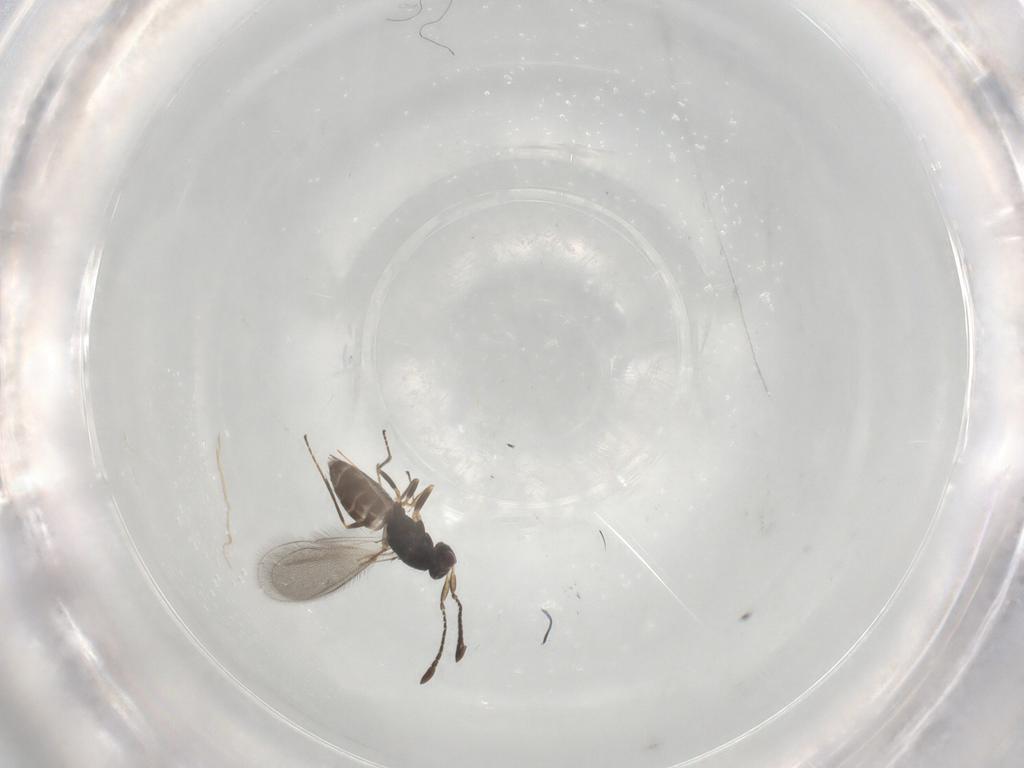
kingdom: Animalia
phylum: Arthropoda
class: Insecta
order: Hymenoptera
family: Mymaridae
